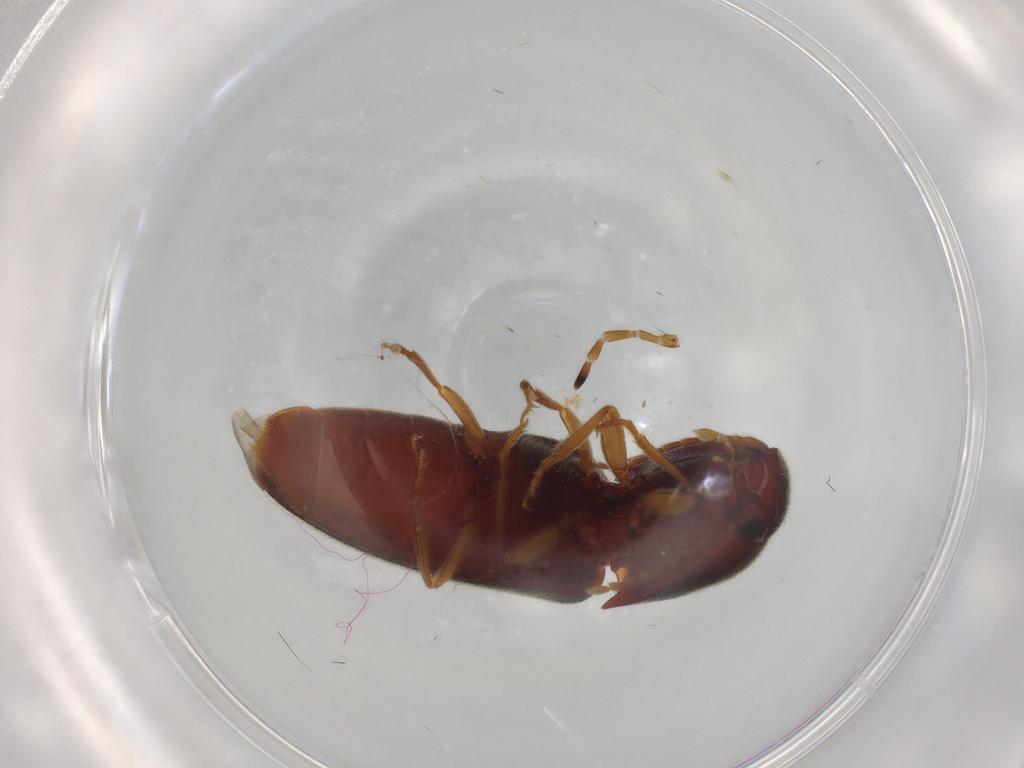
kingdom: Animalia
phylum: Arthropoda
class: Insecta
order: Coleoptera
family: Elateridae
